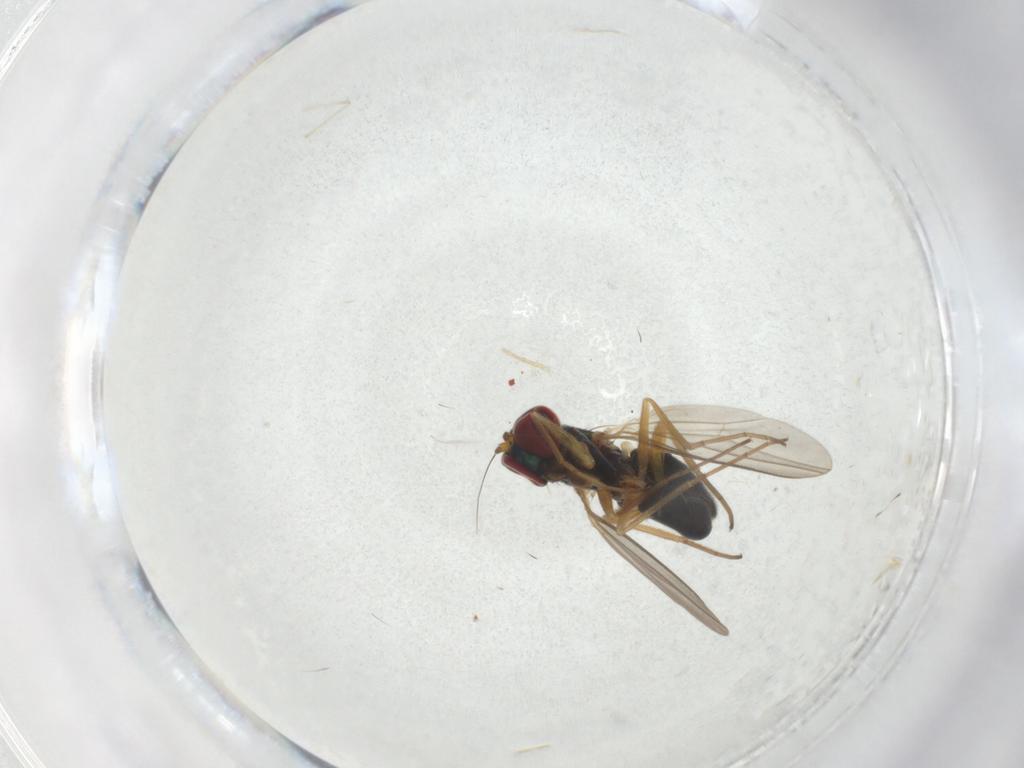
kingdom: Animalia
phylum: Arthropoda
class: Insecta
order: Diptera
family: Dolichopodidae
